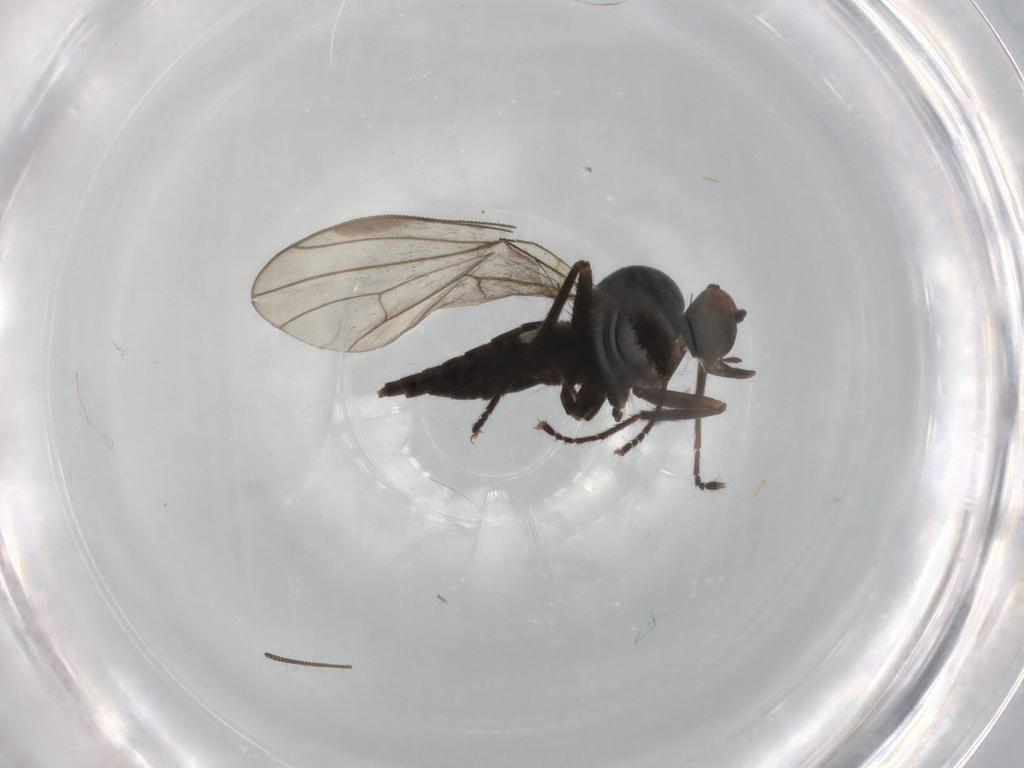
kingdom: Animalia
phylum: Arthropoda
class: Insecta
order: Diptera
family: Hybotidae
